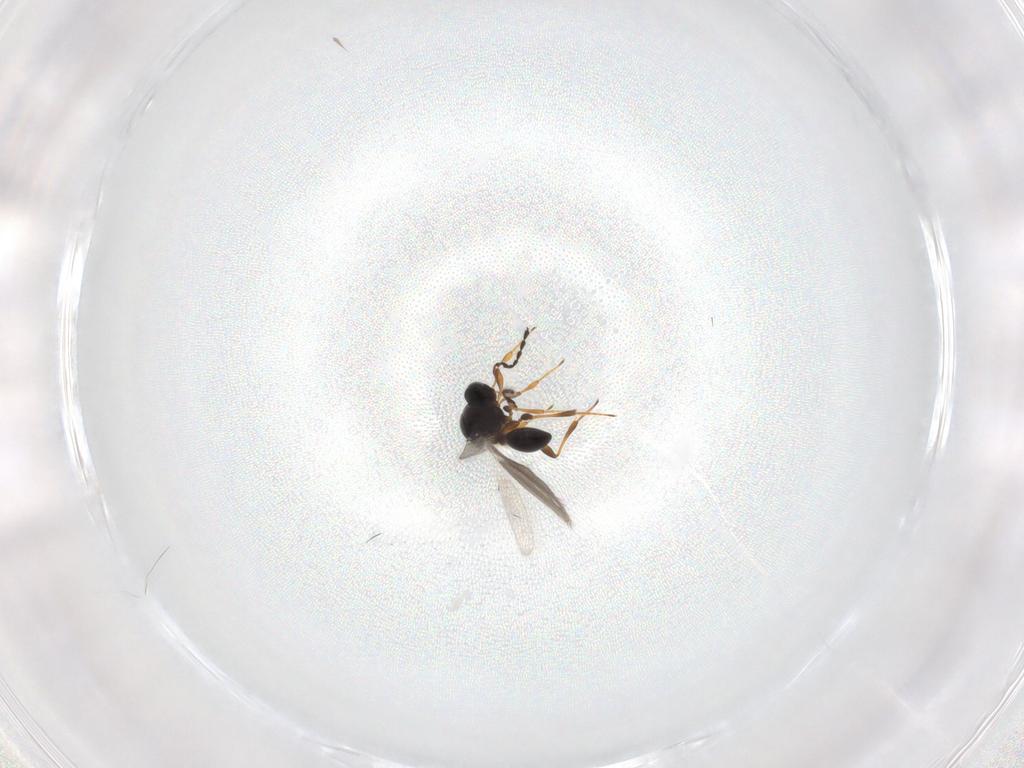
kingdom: Animalia
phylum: Arthropoda
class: Insecta
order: Hymenoptera
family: Platygastridae
